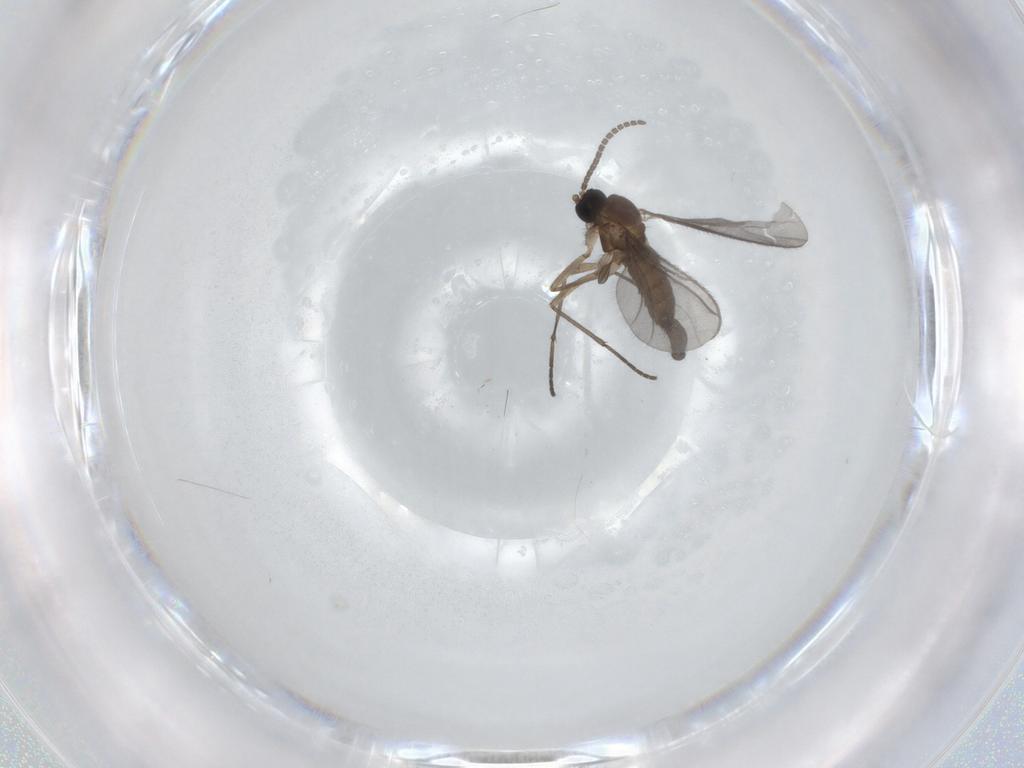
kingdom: Animalia
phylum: Arthropoda
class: Insecta
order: Diptera
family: Sciaridae
